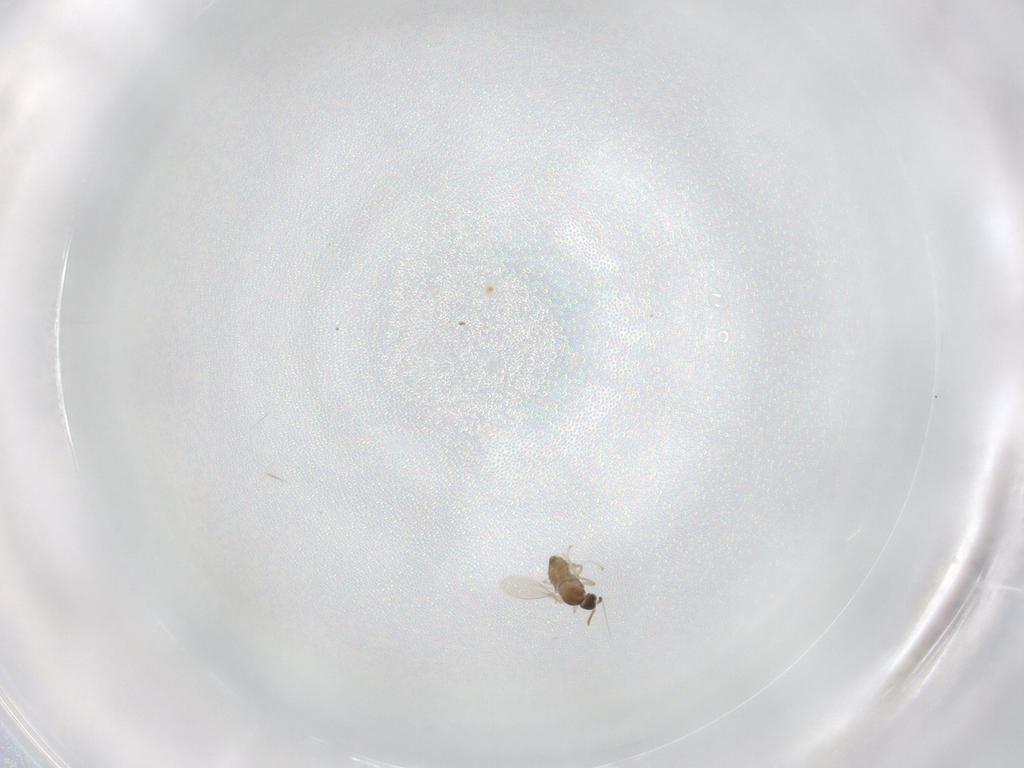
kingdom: Animalia
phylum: Arthropoda
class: Insecta
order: Diptera
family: Cecidomyiidae
